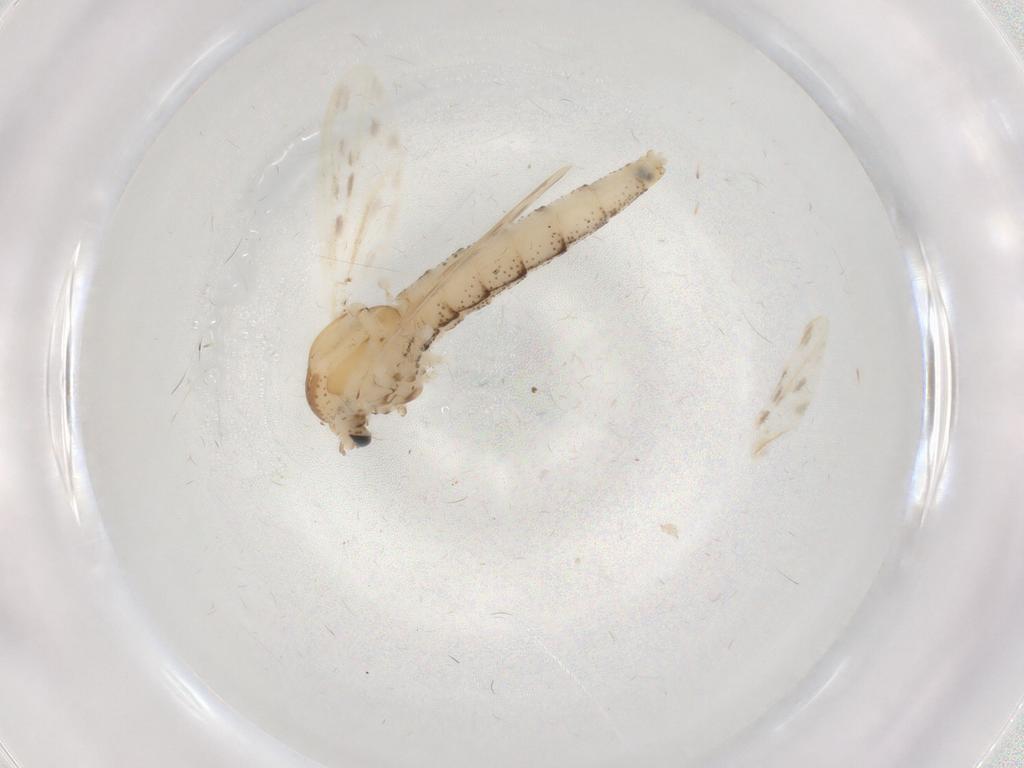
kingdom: Animalia
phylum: Arthropoda
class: Insecta
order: Diptera
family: Chaoboridae
